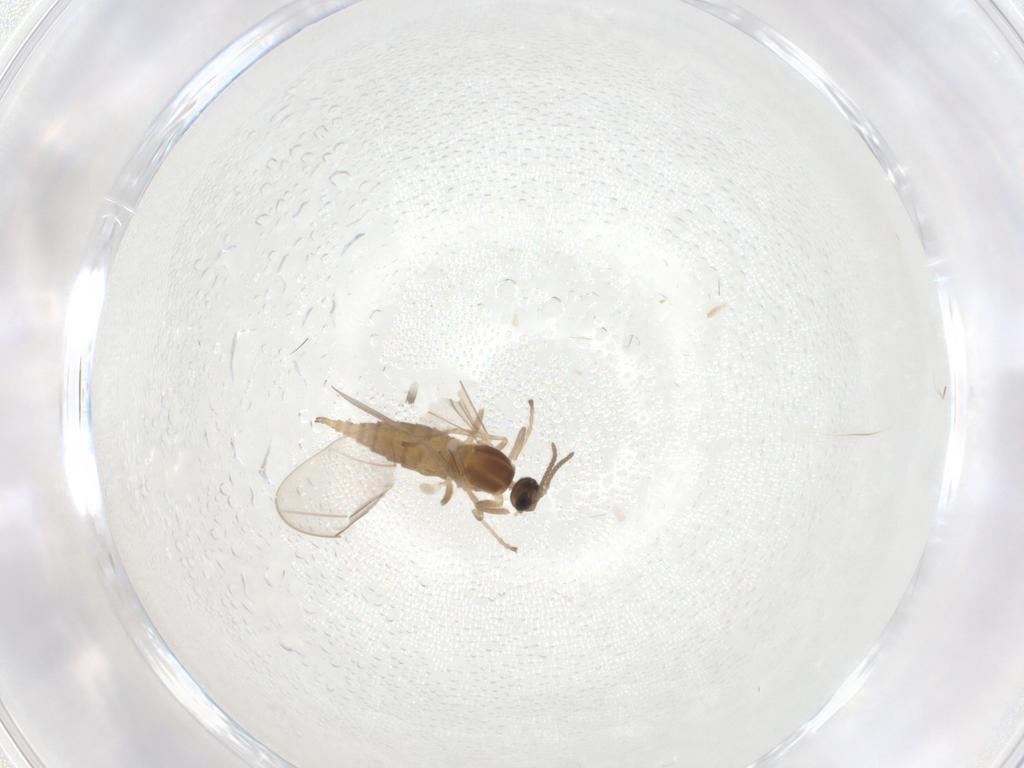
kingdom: Animalia
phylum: Arthropoda
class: Insecta
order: Diptera
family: Cecidomyiidae
